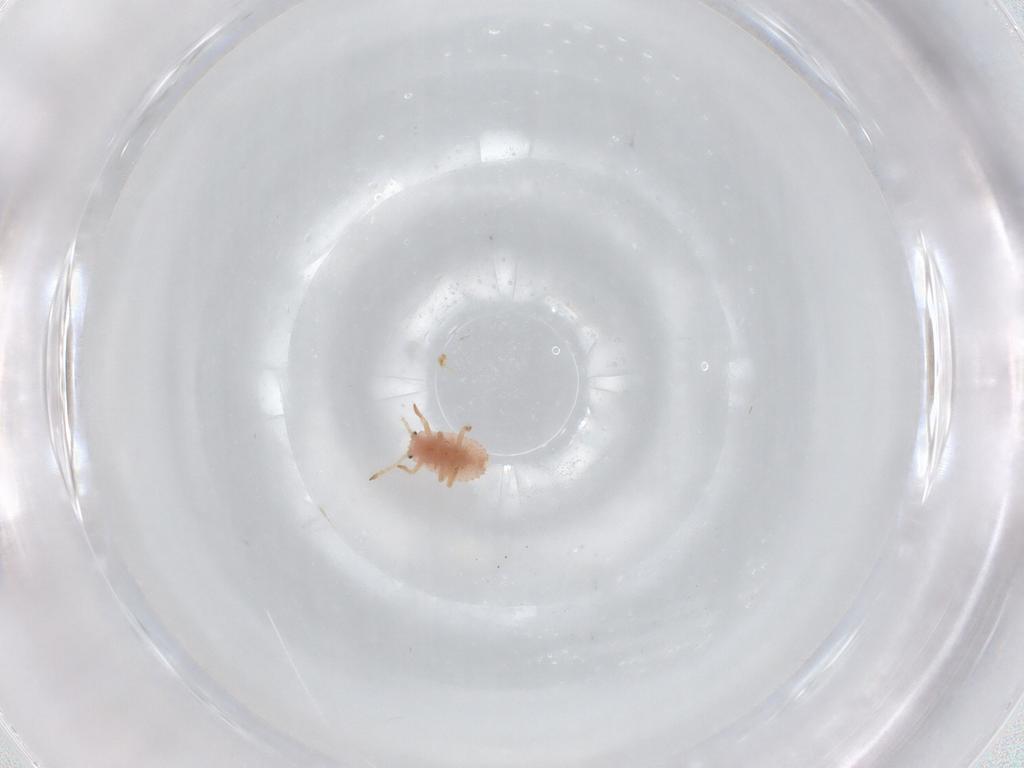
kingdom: Animalia
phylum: Arthropoda
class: Insecta
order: Hemiptera
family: Coccoidea_incertae_sedis
